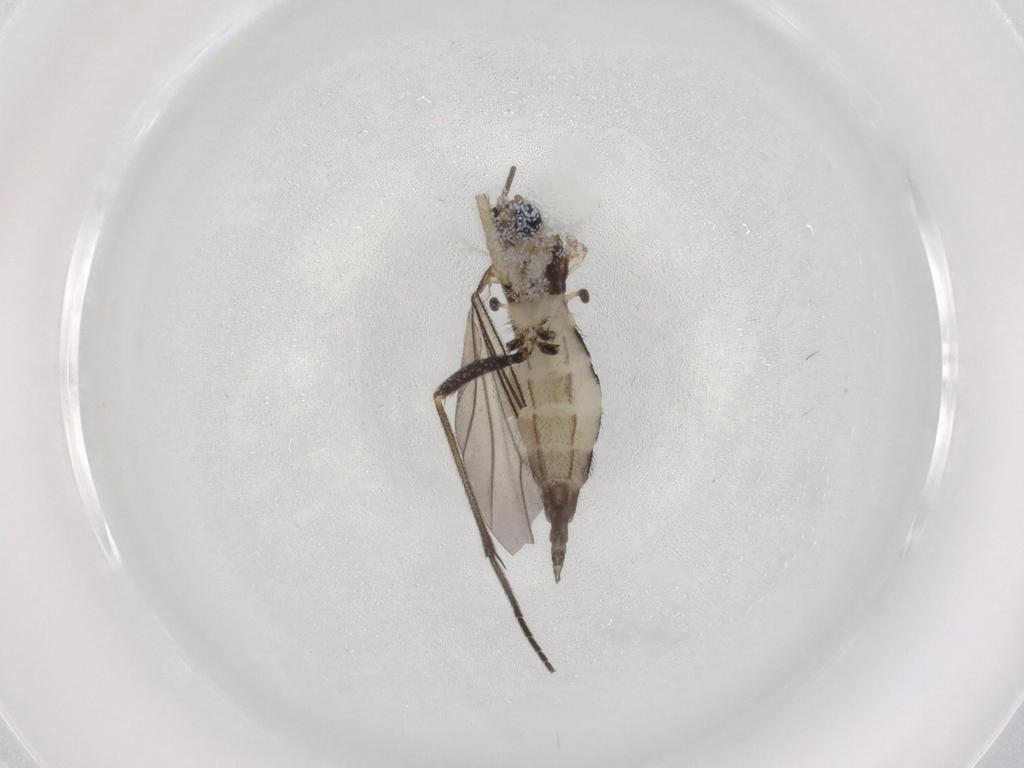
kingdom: Animalia
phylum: Arthropoda
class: Insecta
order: Diptera
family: Sciaridae
